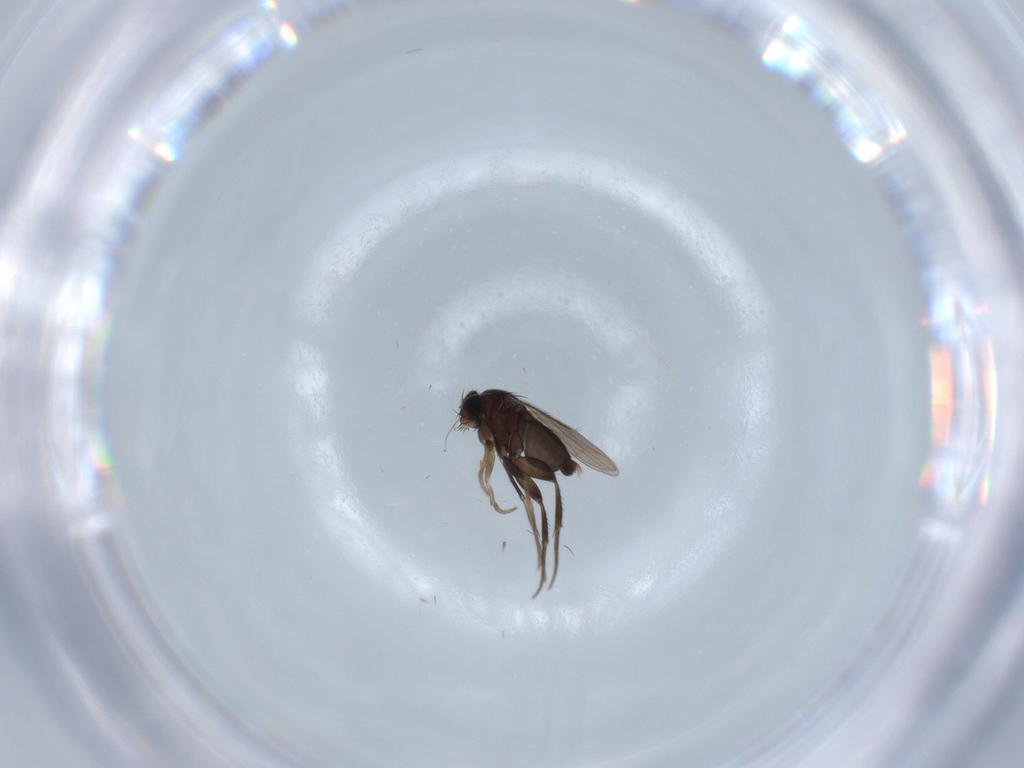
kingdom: Animalia
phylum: Arthropoda
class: Insecta
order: Diptera
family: Phoridae
